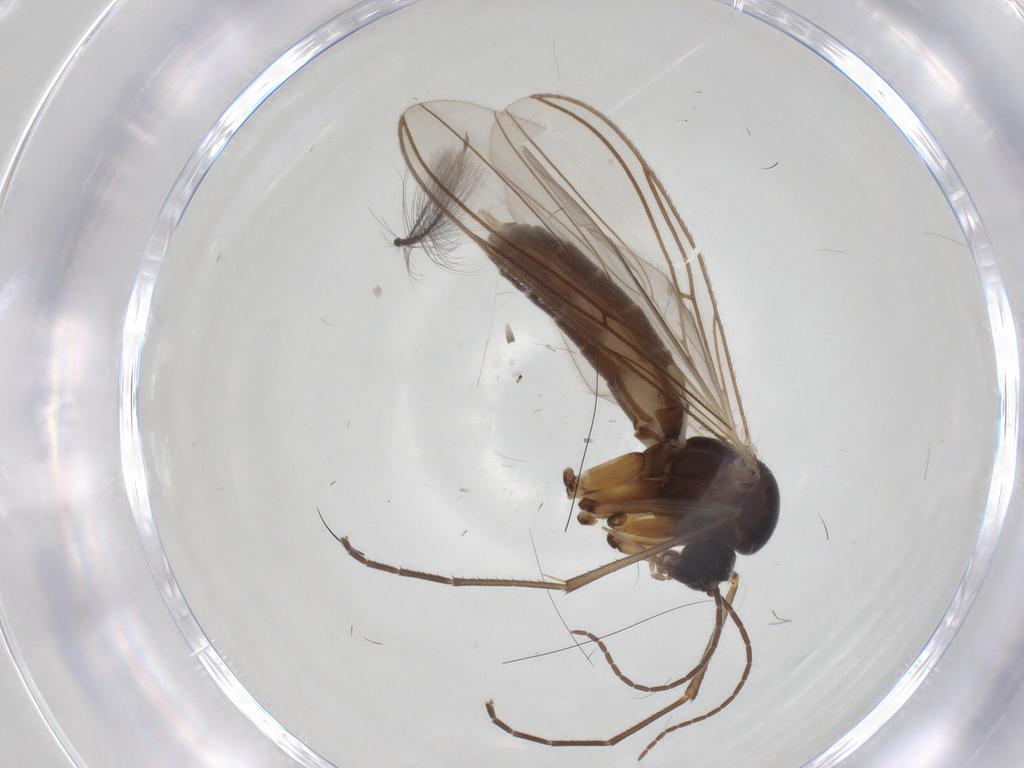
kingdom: Animalia
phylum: Arthropoda
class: Insecta
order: Diptera
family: Mycetophilidae
